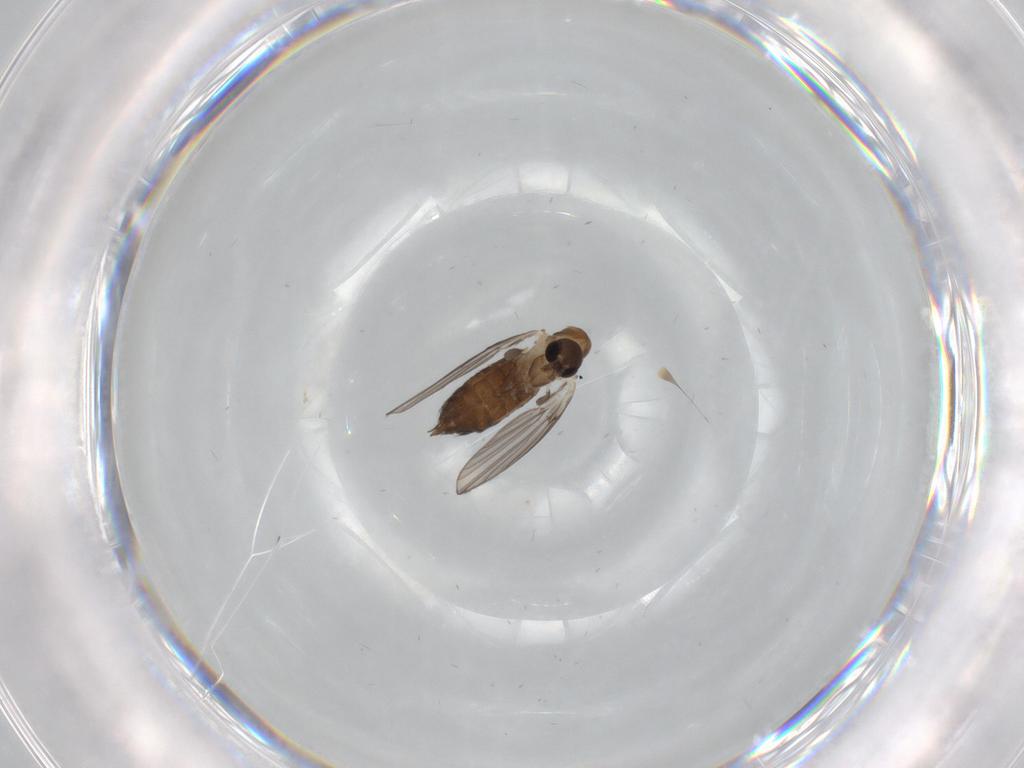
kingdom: Animalia
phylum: Arthropoda
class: Insecta
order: Diptera
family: Psychodidae
